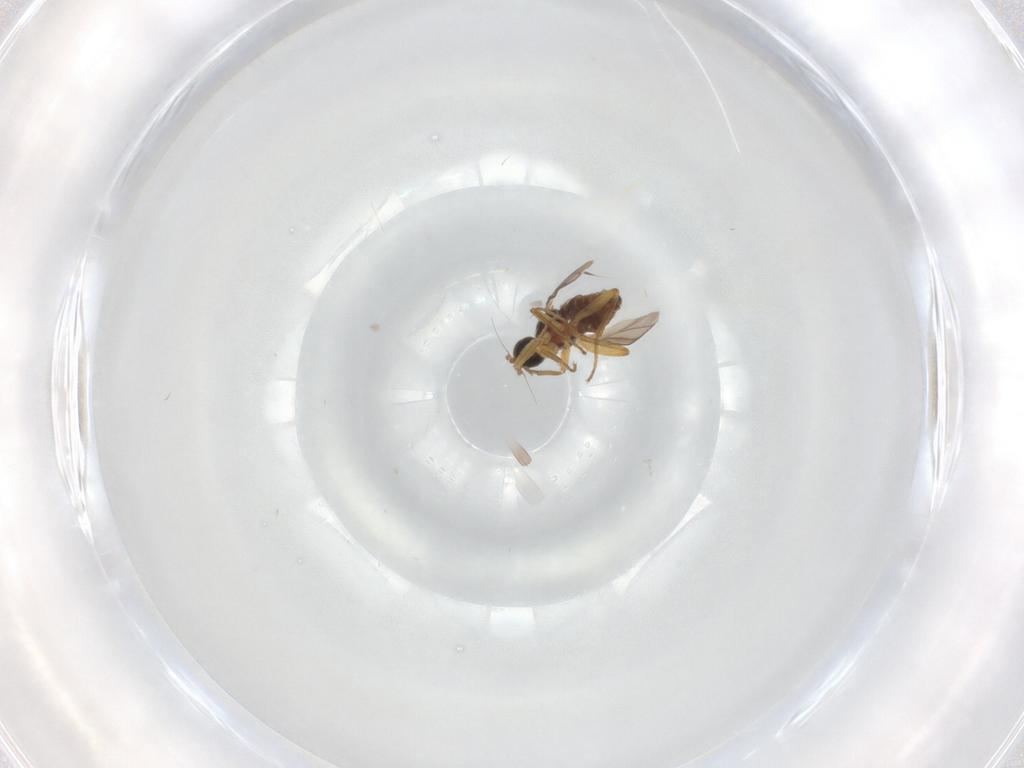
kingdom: Animalia
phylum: Arthropoda
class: Insecta
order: Diptera
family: Hybotidae
